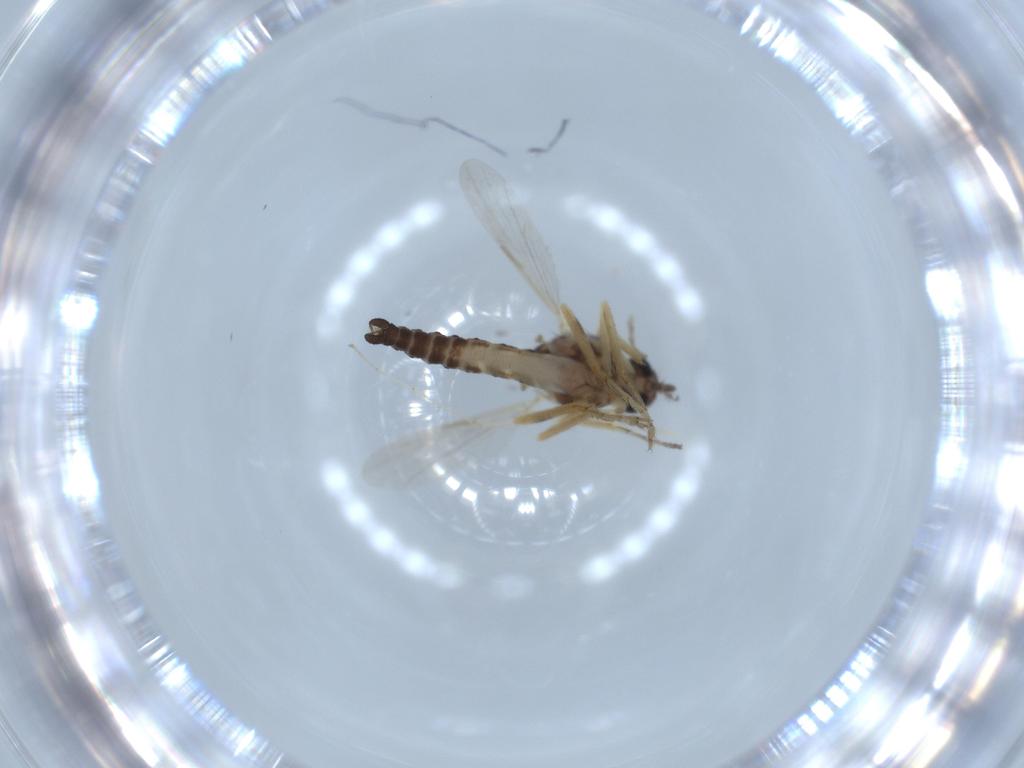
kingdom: Animalia
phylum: Arthropoda
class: Insecta
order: Diptera
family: Ceratopogonidae
